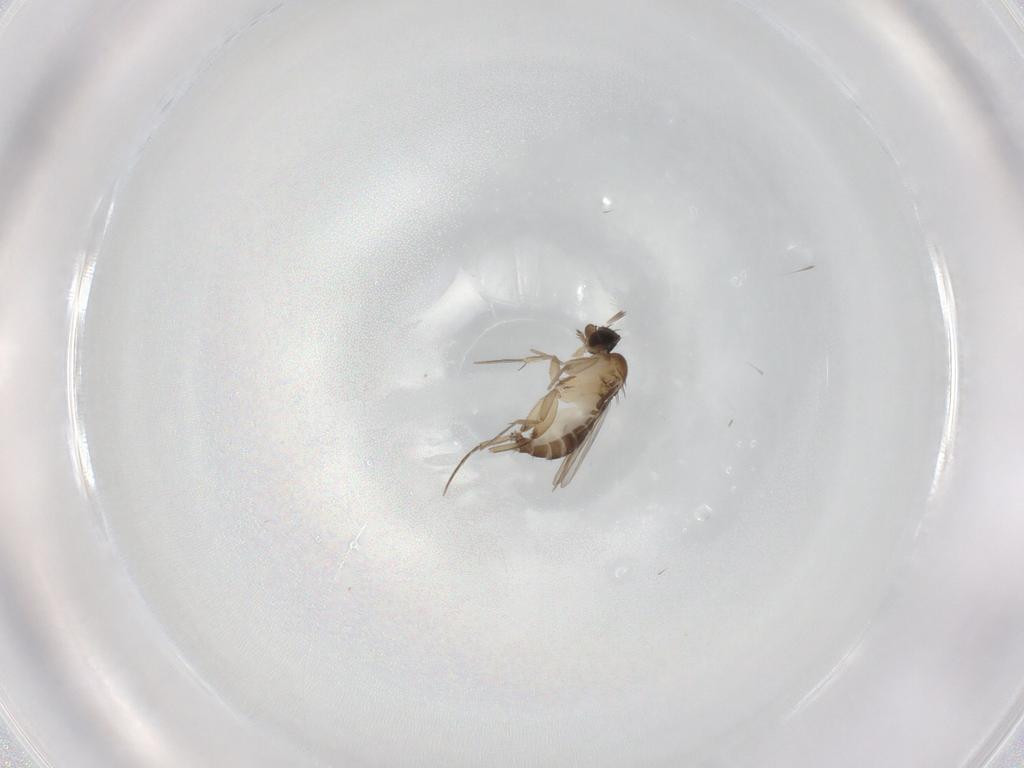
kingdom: Animalia
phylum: Arthropoda
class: Insecta
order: Diptera
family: Phoridae
